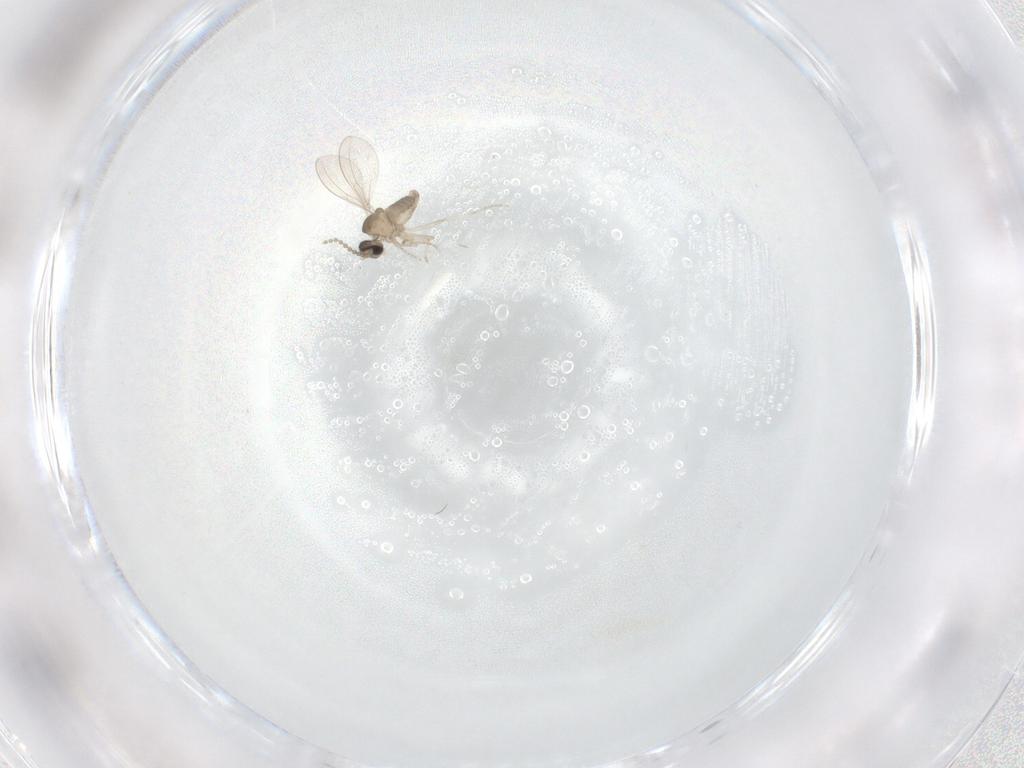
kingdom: Animalia
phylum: Arthropoda
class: Insecta
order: Diptera
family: Cecidomyiidae
